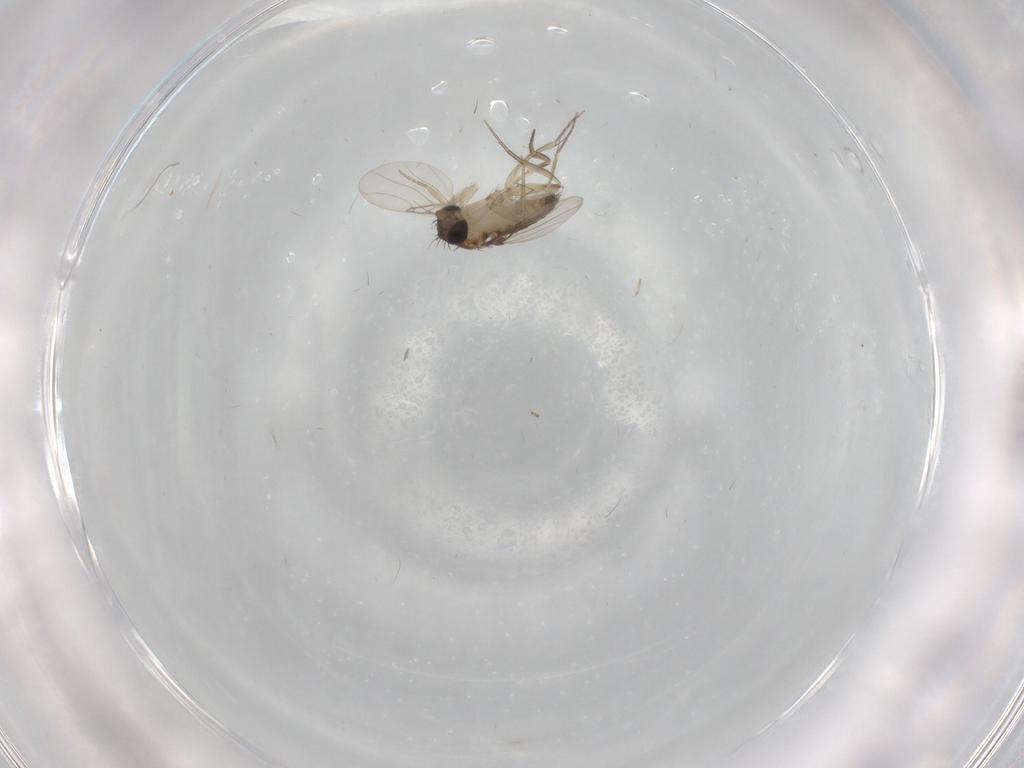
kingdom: Animalia
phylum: Arthropoda
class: Insecta
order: Diptera
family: Phoridae
